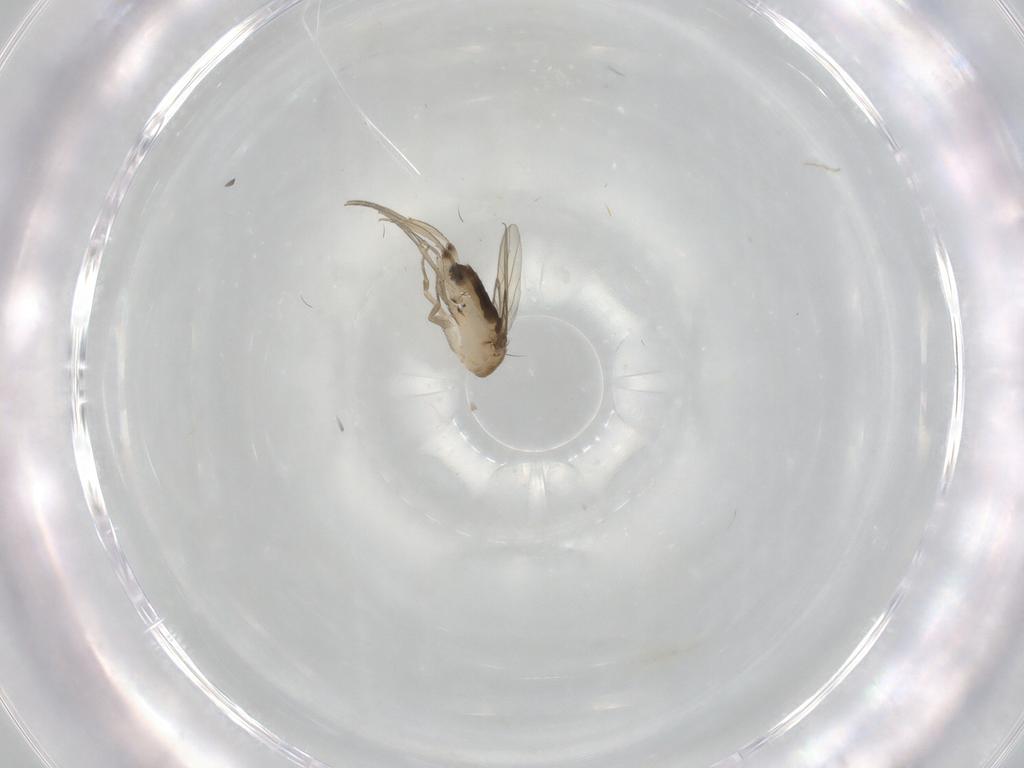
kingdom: Animalia
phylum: Arthropoda
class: Insecta
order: Diptera
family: Phoridae
